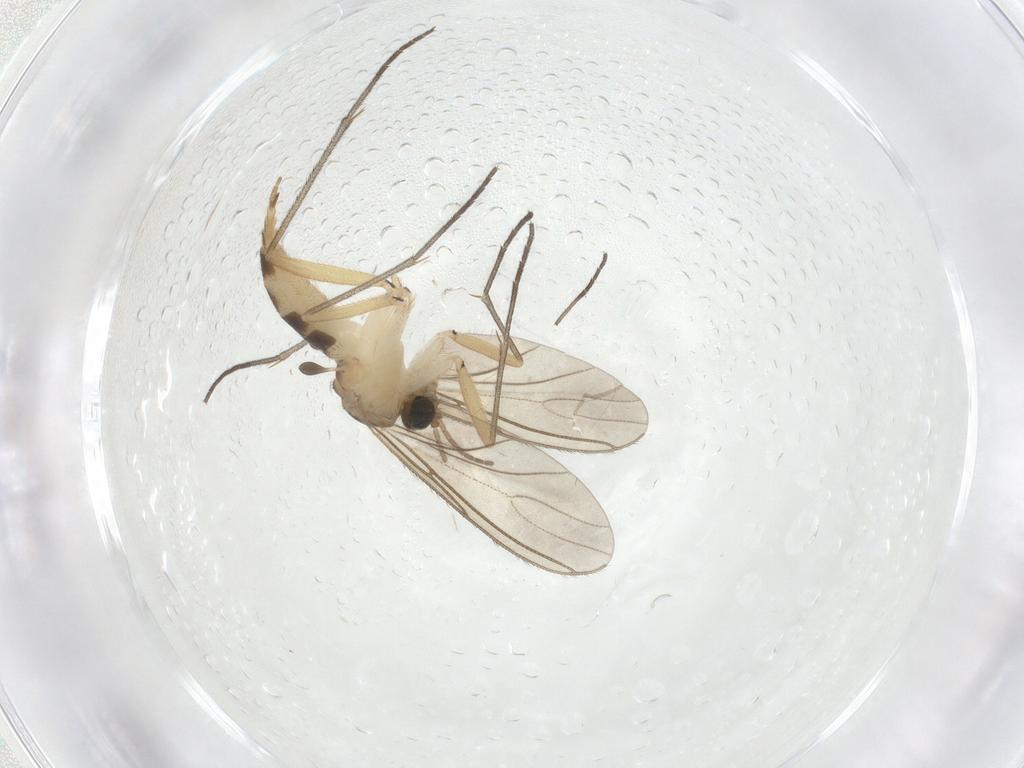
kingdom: Animalia
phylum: Arthropoda
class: Insecta
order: Diptera
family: Sciaridae
